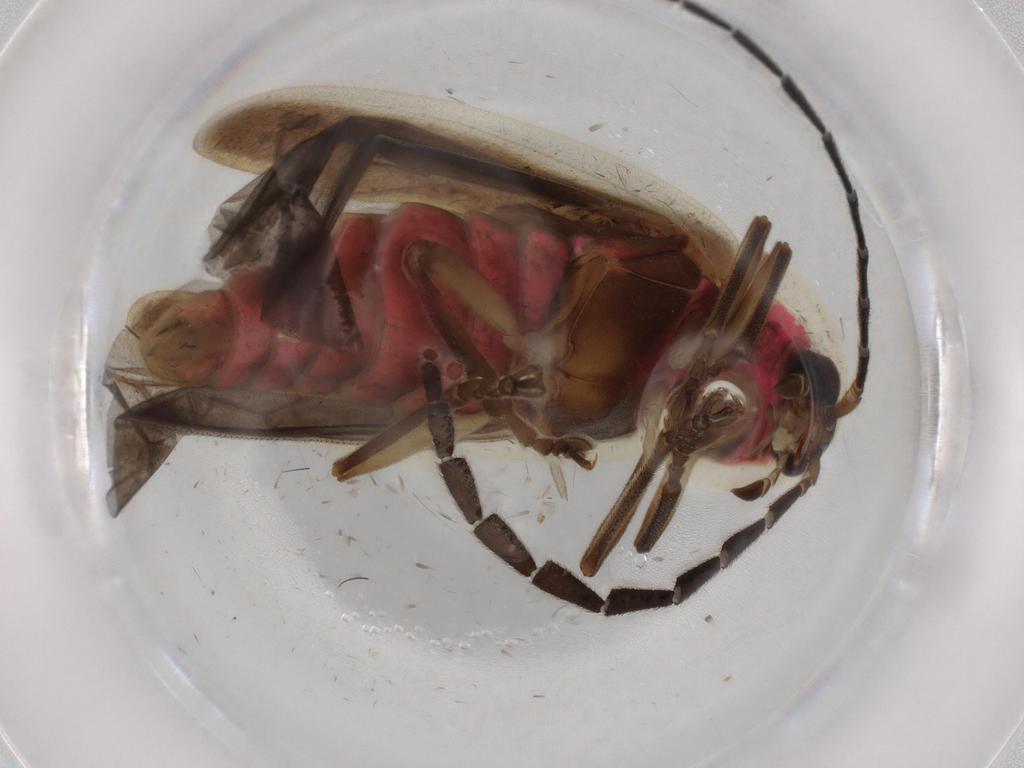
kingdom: Animalia
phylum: Arthropoda
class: Insecta
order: Coleoptera
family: Lampyridae
